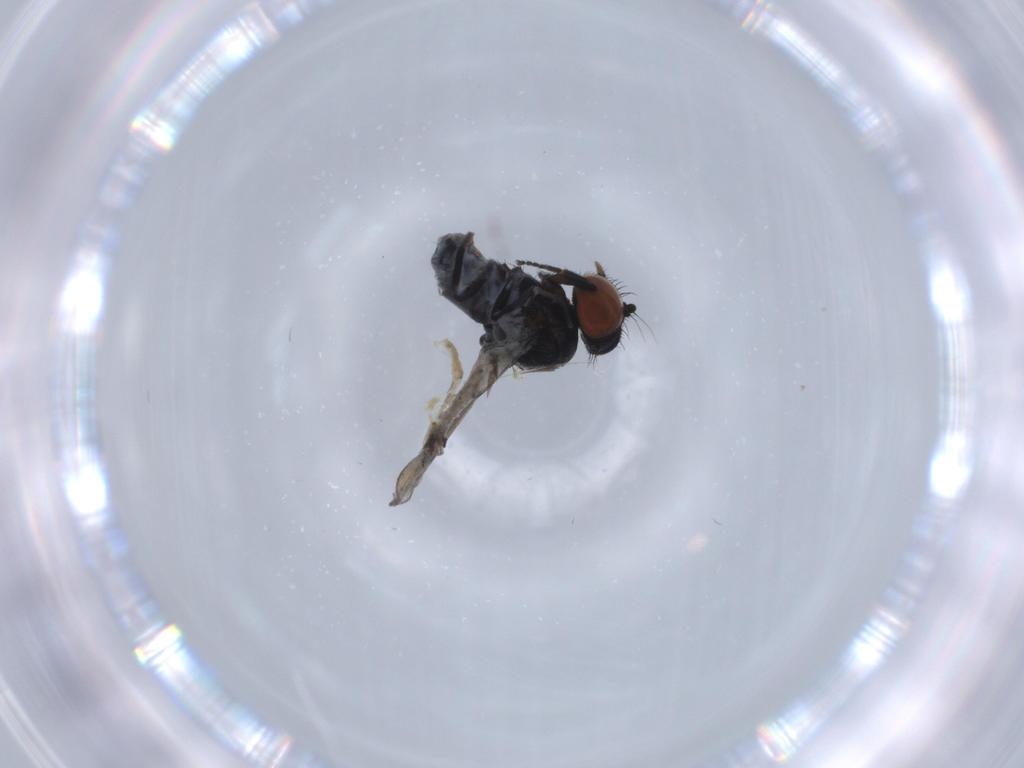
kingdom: Animalia
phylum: Arthropoda
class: Insecta
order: Diptera
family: Milichiidae
